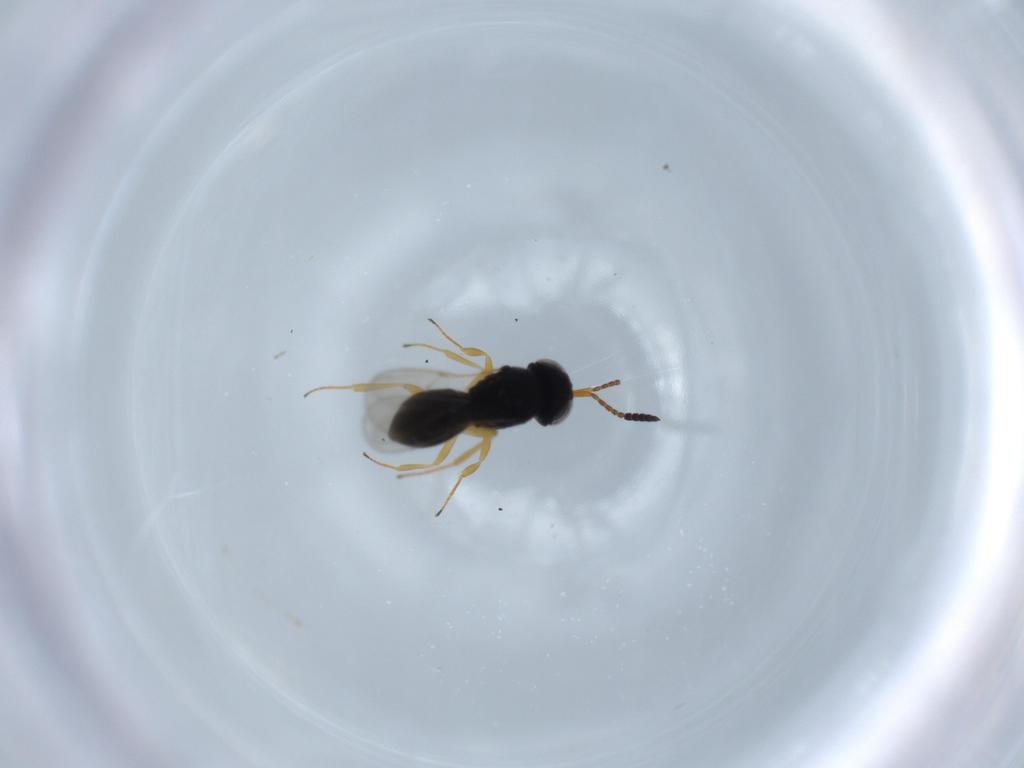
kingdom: Animalia
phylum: Arthropoda
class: Insecta
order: Hymenoptera
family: Scelionidae
